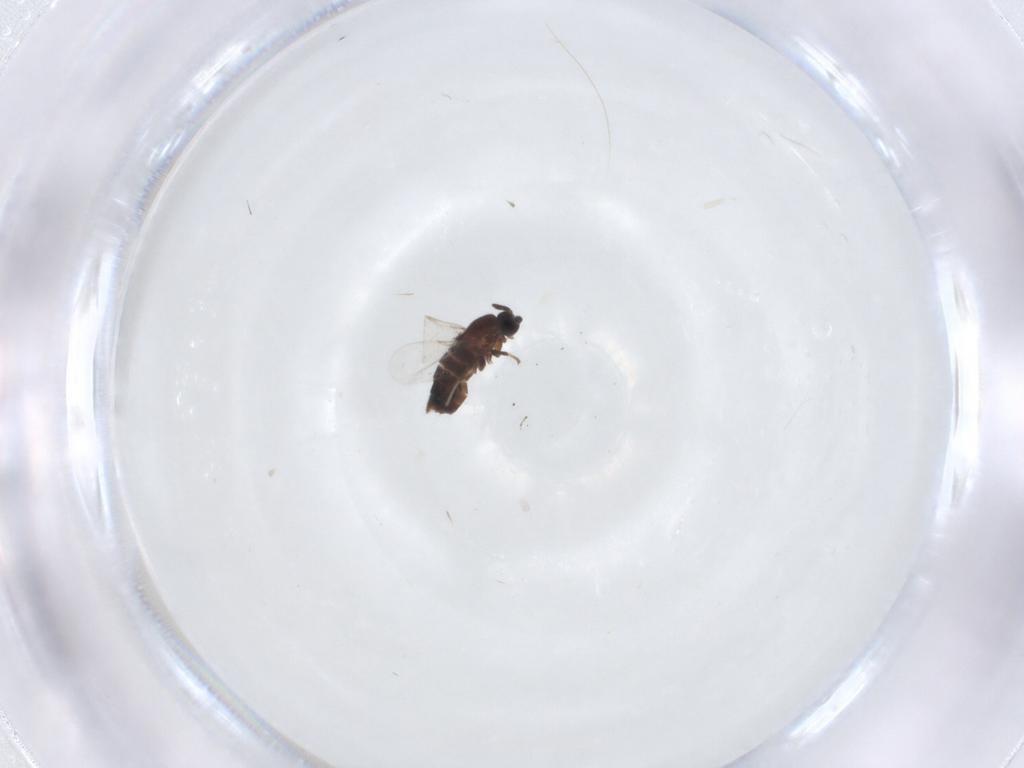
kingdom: Animalia
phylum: Arthropoda
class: Insecta
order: Diptera
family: Scatopsidae
